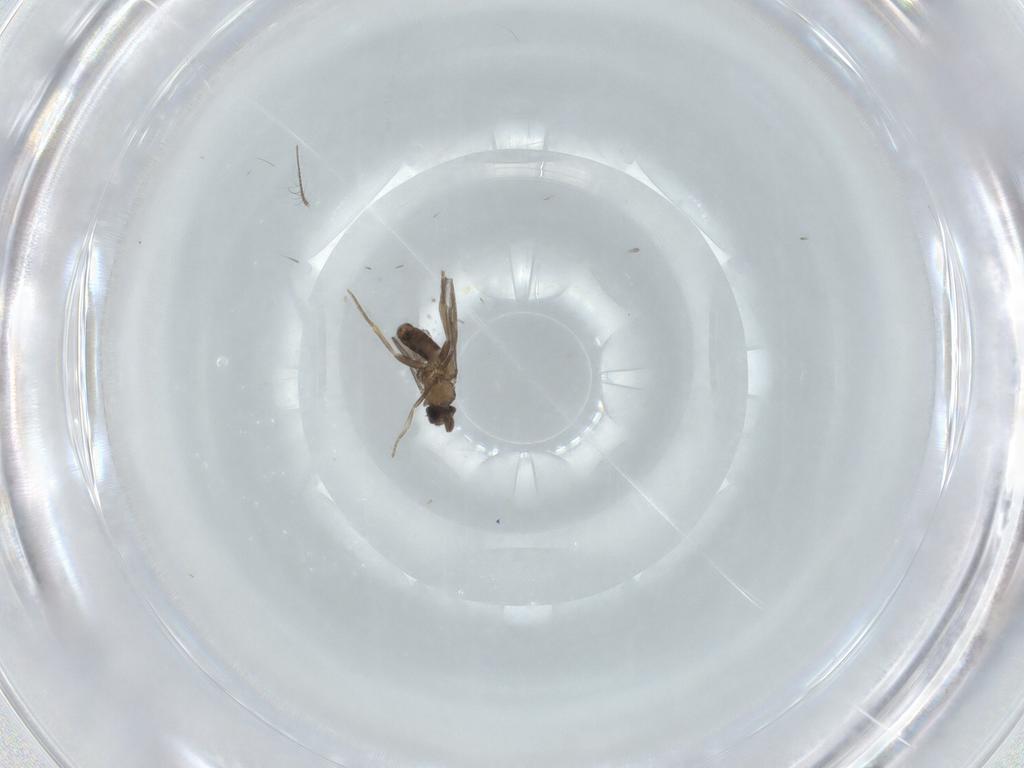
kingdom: Animalia
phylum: Arthropoda
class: Insecta
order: Diptera
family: Chironomidae
